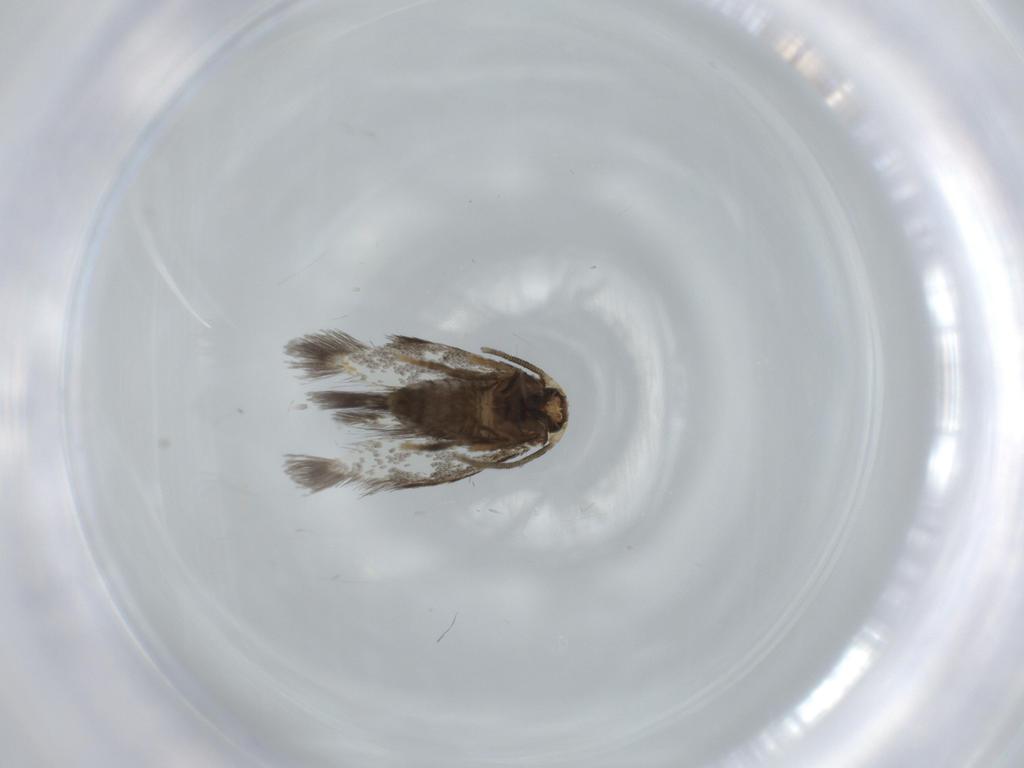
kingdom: Animalia
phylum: Arthropoda
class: Insecta
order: Lepidoptera
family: Nepticulidae
